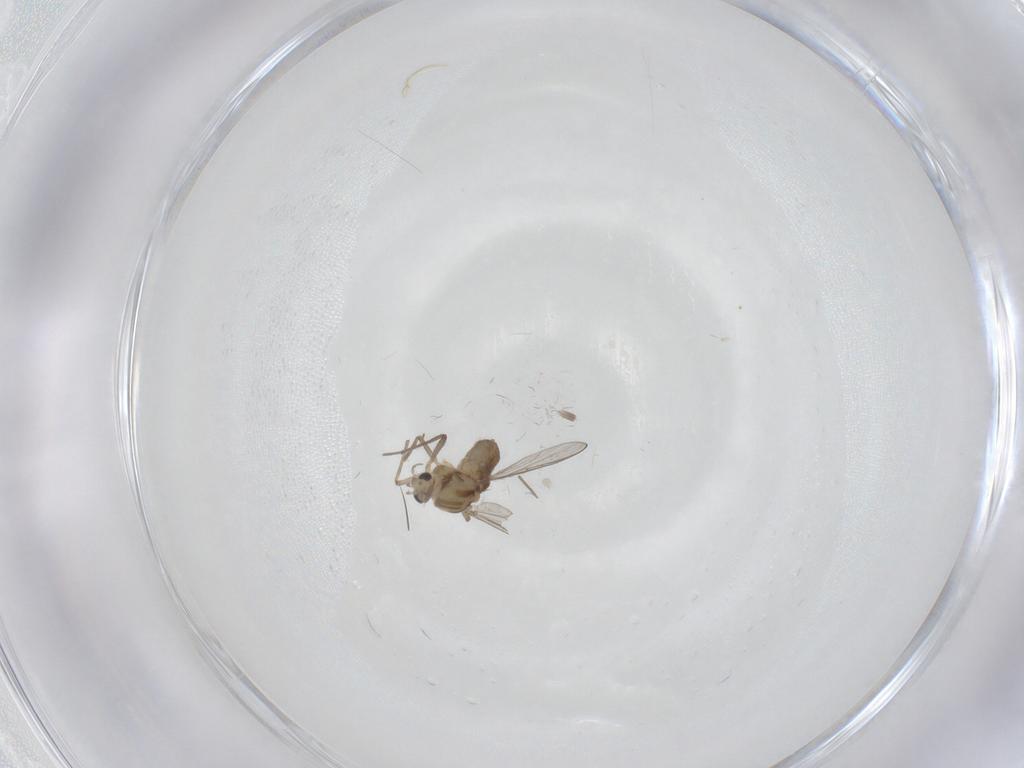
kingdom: Animalia
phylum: Arthropoda
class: Insecta
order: Diptera
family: Chironomidae
